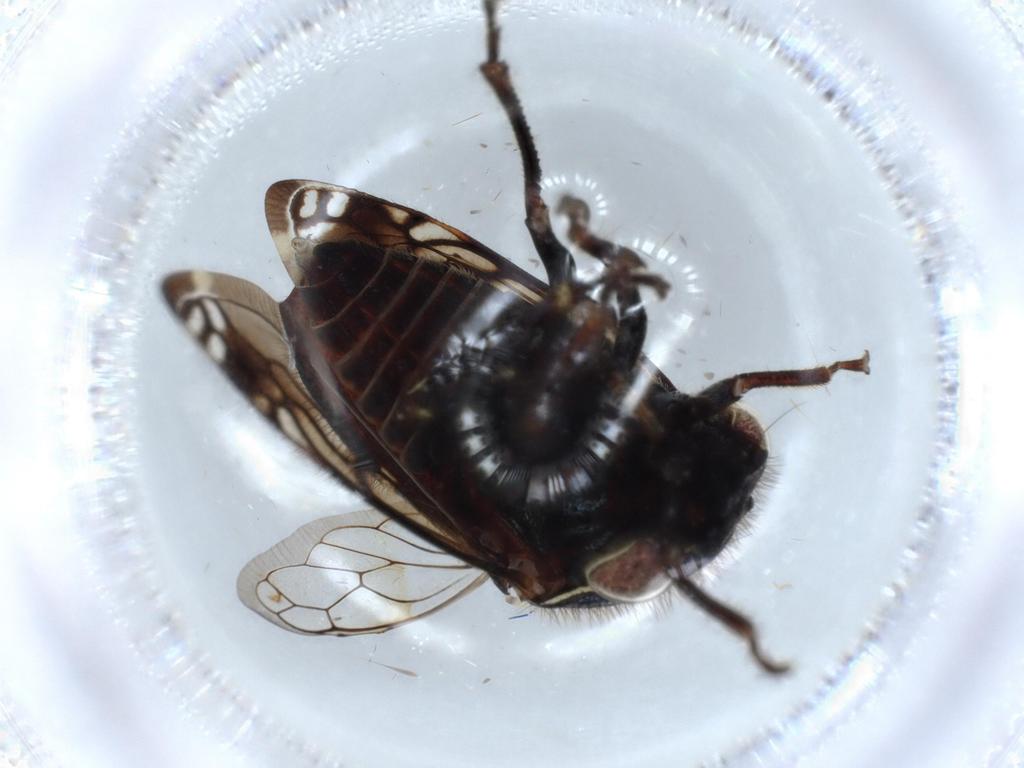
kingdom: Animalia
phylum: Arthropoda
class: Insecta
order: Hemiptera
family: Membracidae
